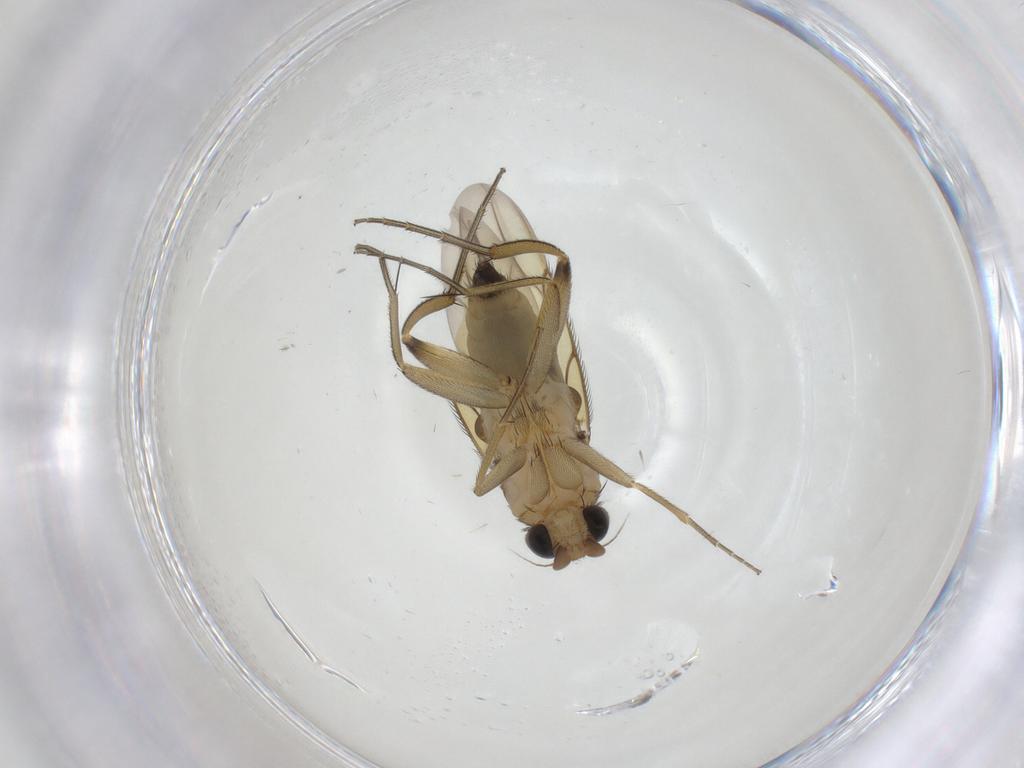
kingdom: Animalia
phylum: Arthropoda
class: Insecta
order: Diptera
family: Phoridae
